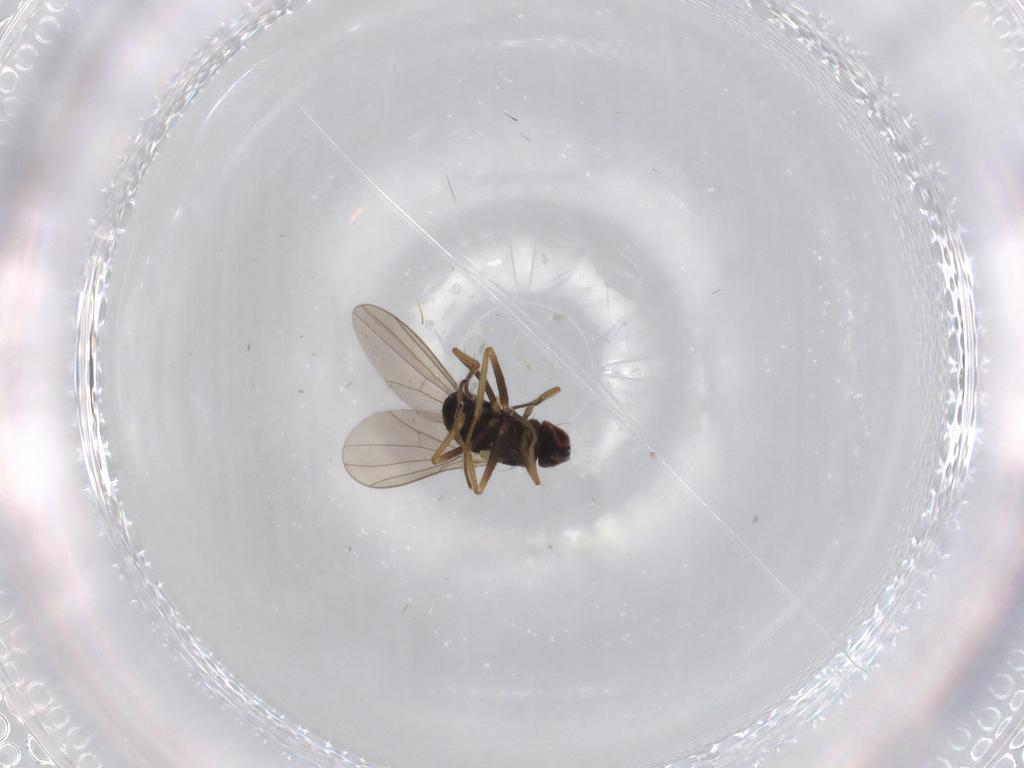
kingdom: Animalia
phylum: Arthropoda
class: Insecta
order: Diptera
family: Dolichopodidae
